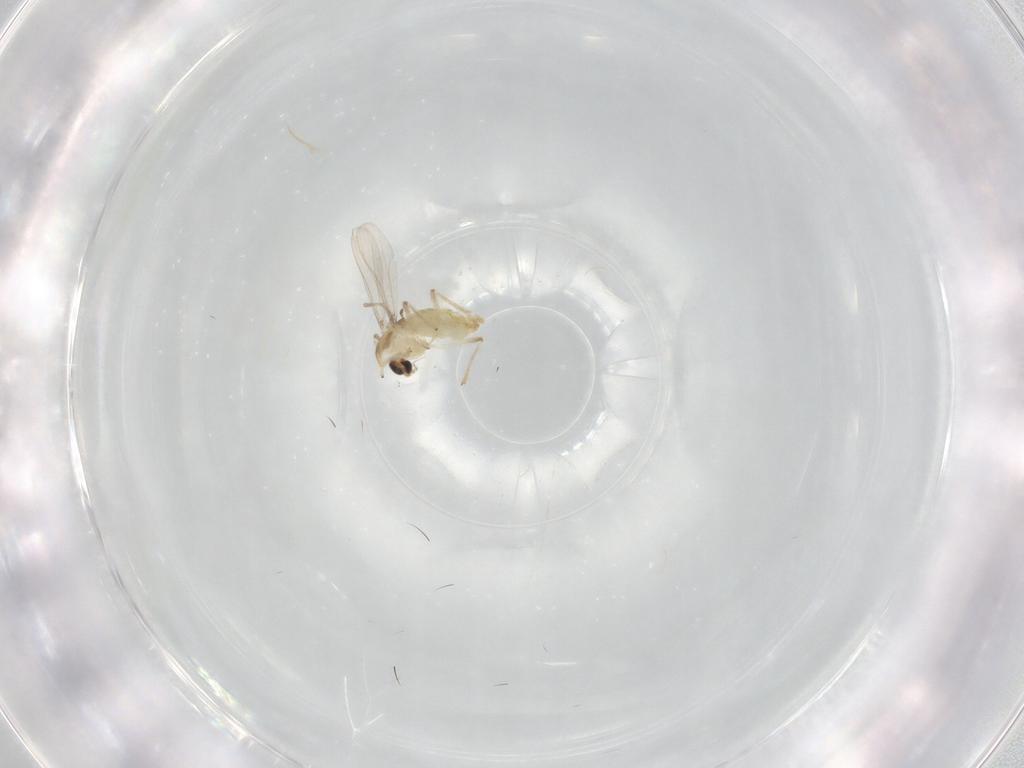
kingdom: Animalia
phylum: Arthropoda
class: Insecta
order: Diptera
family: Chironomidae
